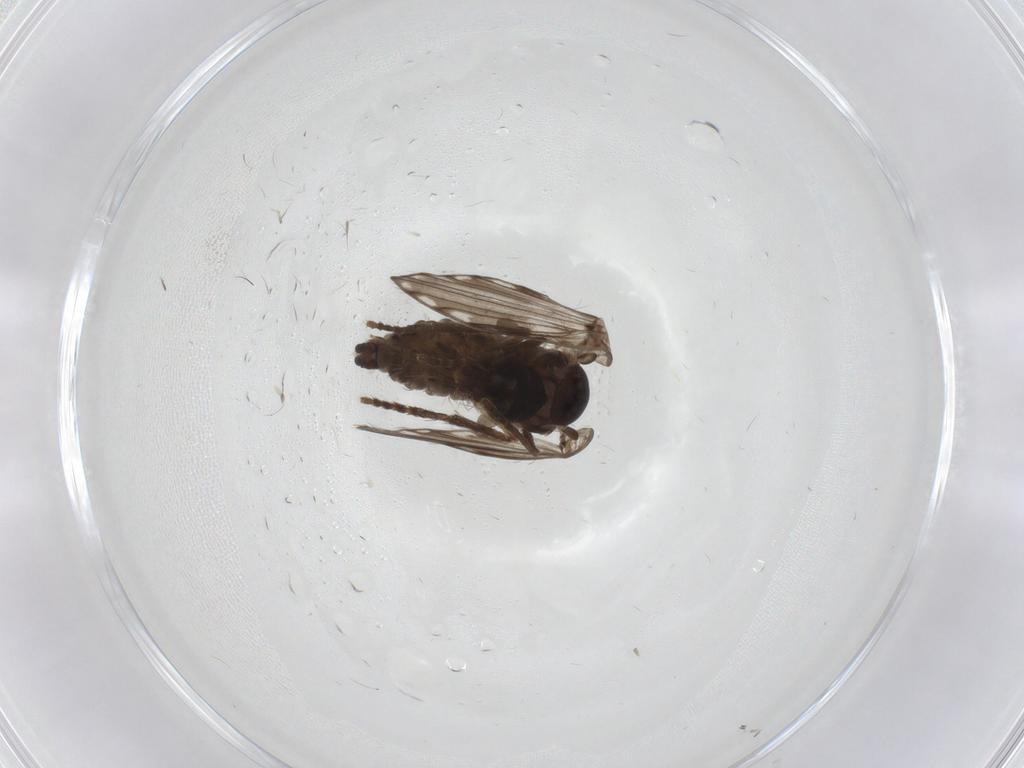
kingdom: Animalia
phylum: Arthropoda
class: Insecta
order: Diptera
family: Psychodidae
